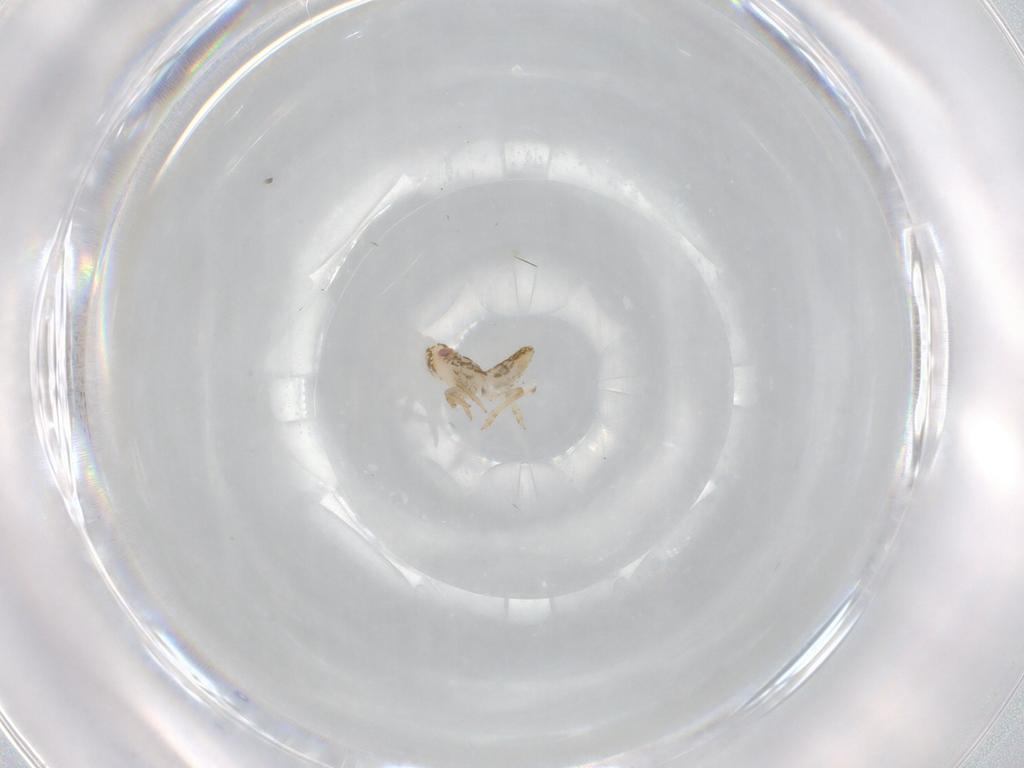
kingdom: Animalia
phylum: Arthropoda
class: Insecta
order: Hemiptera
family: Delphacidae
